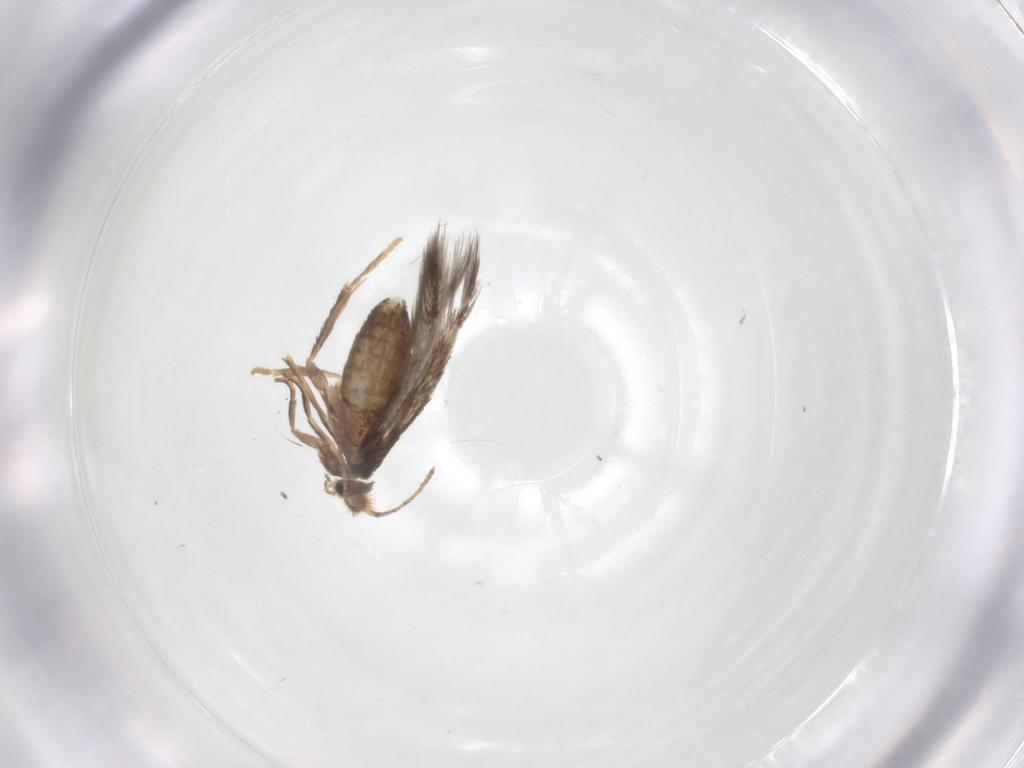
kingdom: Animalia
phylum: Arthropoda
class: Insecta
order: Lepidoptera
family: Nepticulidae
